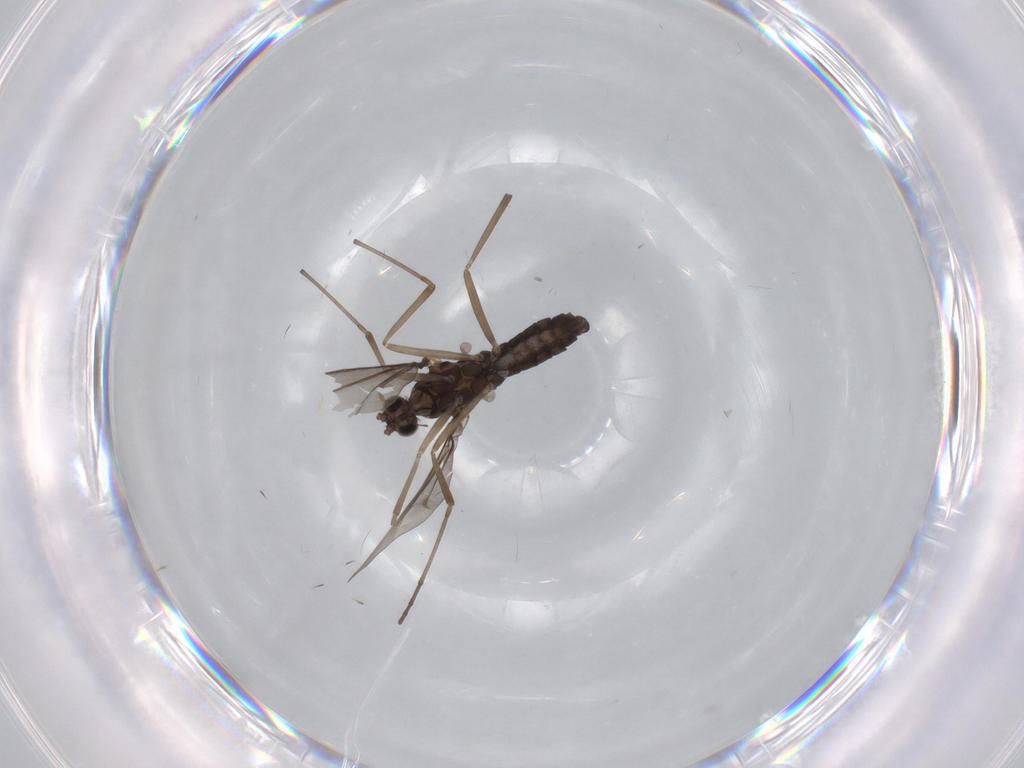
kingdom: Animalia
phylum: Arthropoda
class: Insecta
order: Diptera
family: Cecidomyiidae
